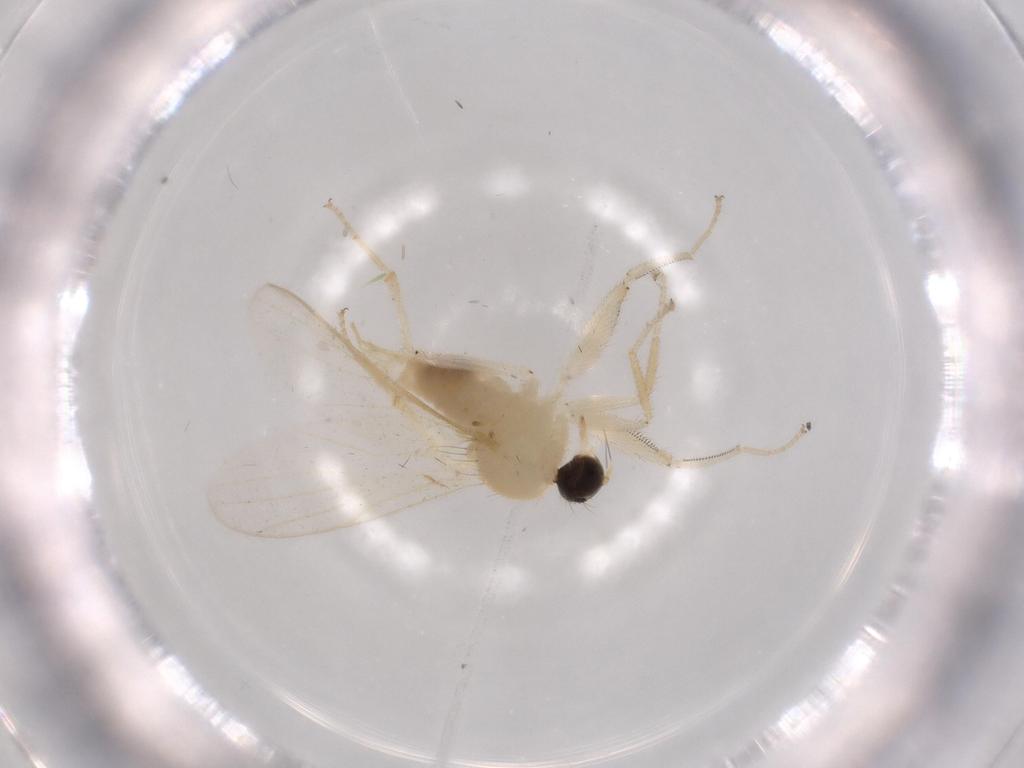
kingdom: Animalia
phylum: Arthropoda
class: Insecta
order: Diptera
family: Hybotidae
